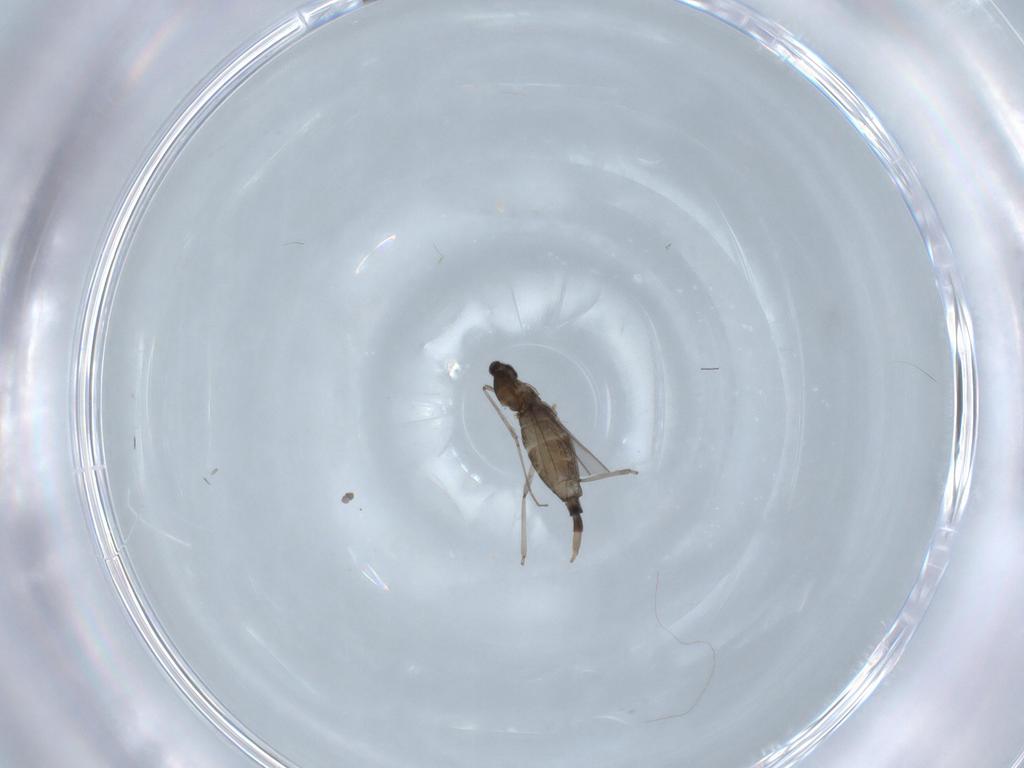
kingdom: Animalia
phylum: Arthropoda
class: Insecta
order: Diptera
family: Cecidomyiidae
